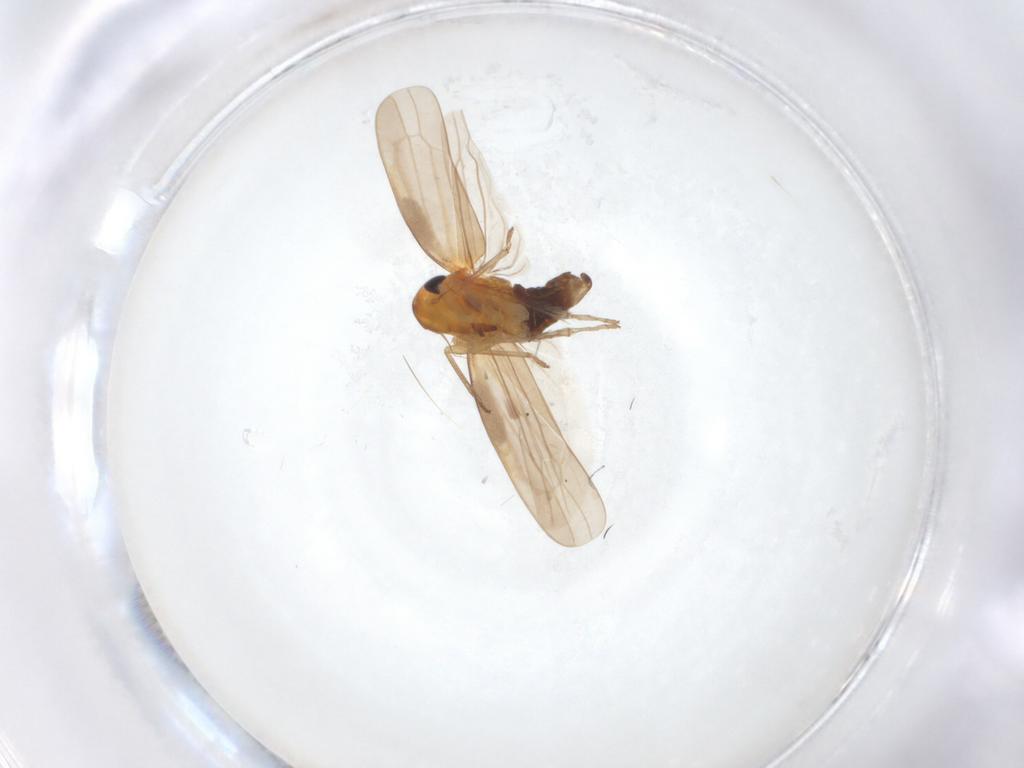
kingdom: Animalia
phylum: Arthropoda
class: Insecta
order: Hemiptera
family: Cicadellidae
